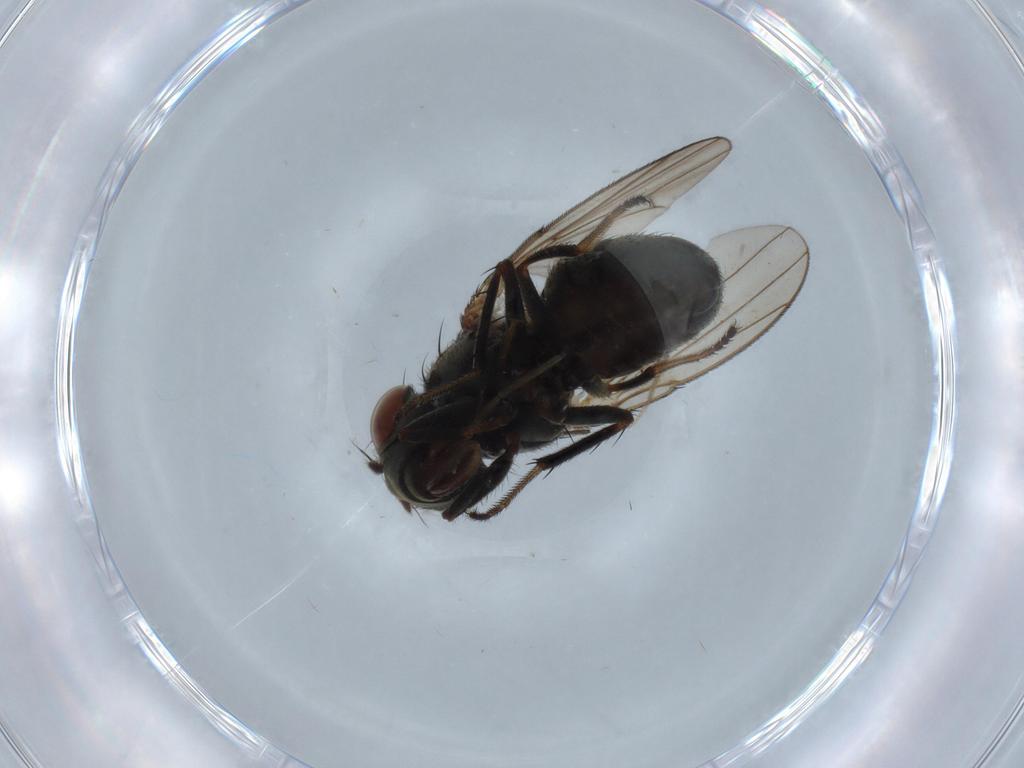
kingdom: Animalia
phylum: Arthropoda
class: Insecta
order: Diptera
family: Ephydridae
